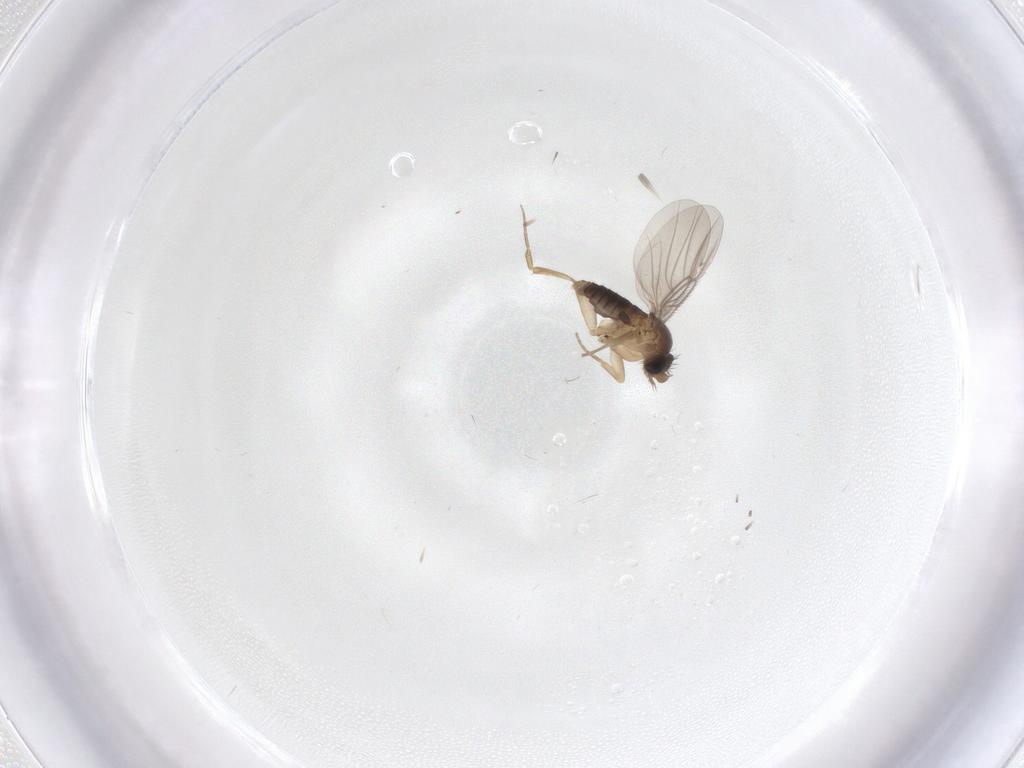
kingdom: Animalia
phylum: Arthropoda
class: Insecta
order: Diptera
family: Phoridae
